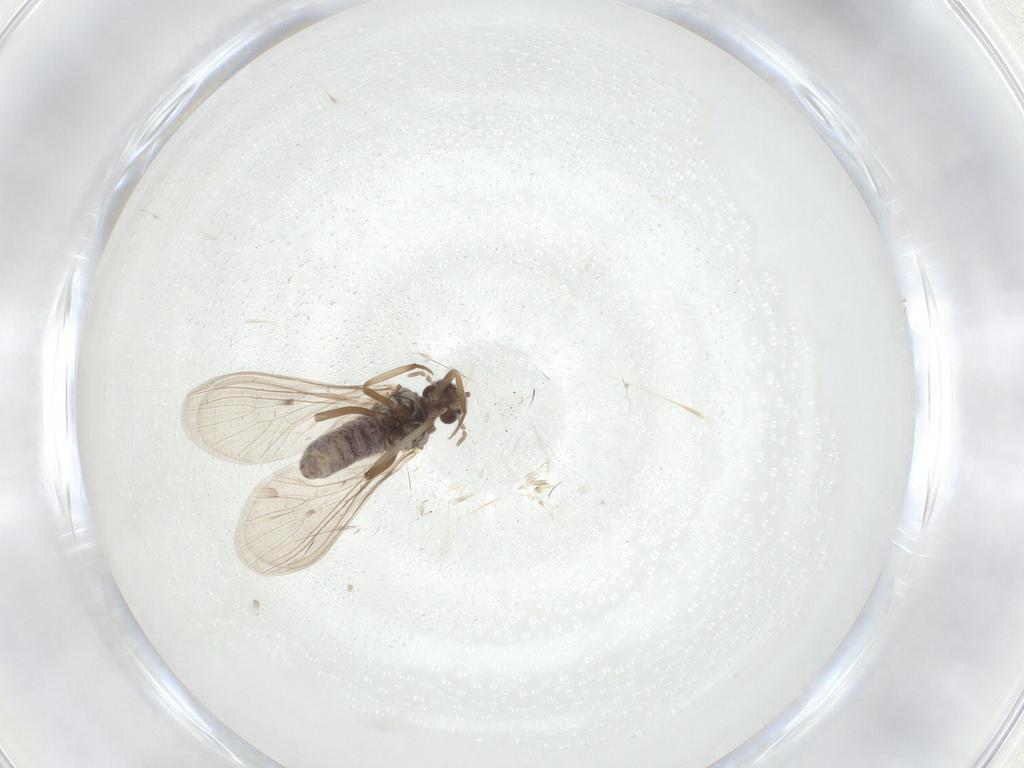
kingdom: Animalia
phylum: Arthropoda
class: Insecta
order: Neuroptera
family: Coniopterygidae
